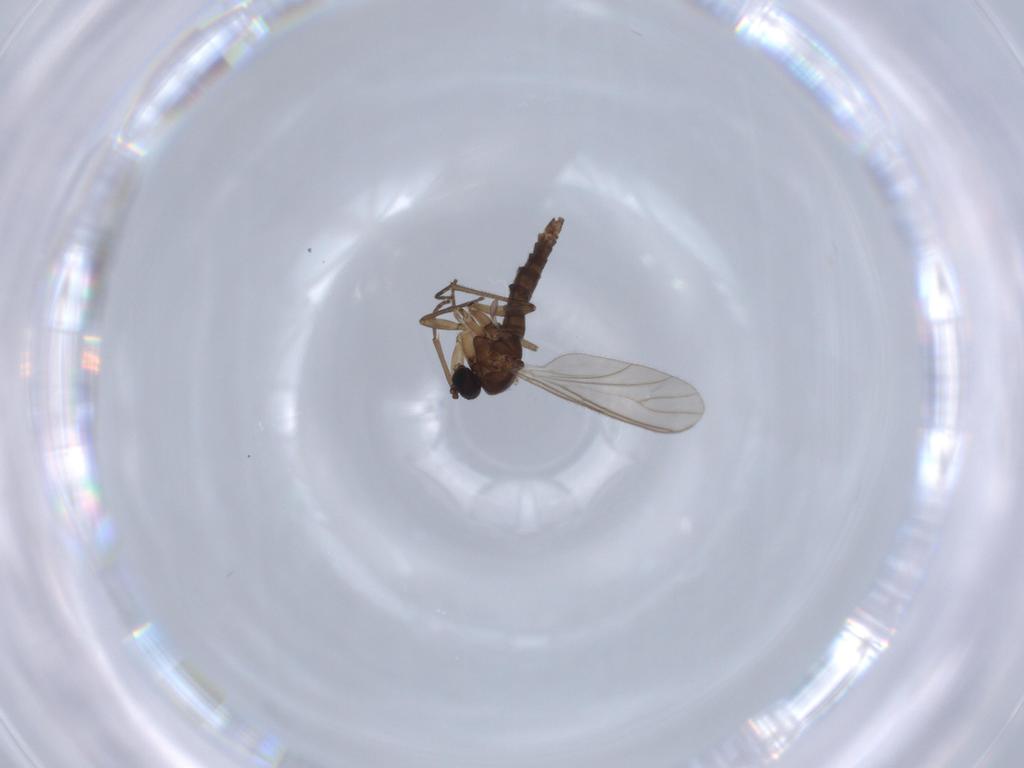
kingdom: Animalia
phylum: Arthropoda
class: Insecta
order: Diptera
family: Sciaridae
